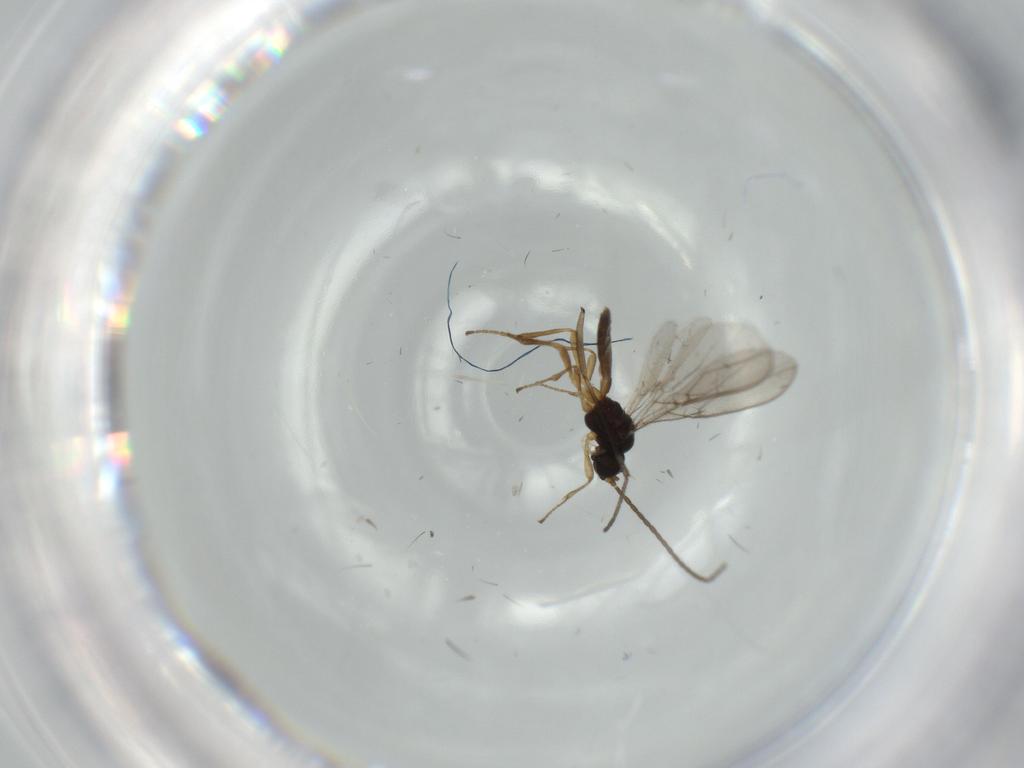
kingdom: Animalia
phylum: Arthropoda
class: Insecta
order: Hymenoptera
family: Braconidae
